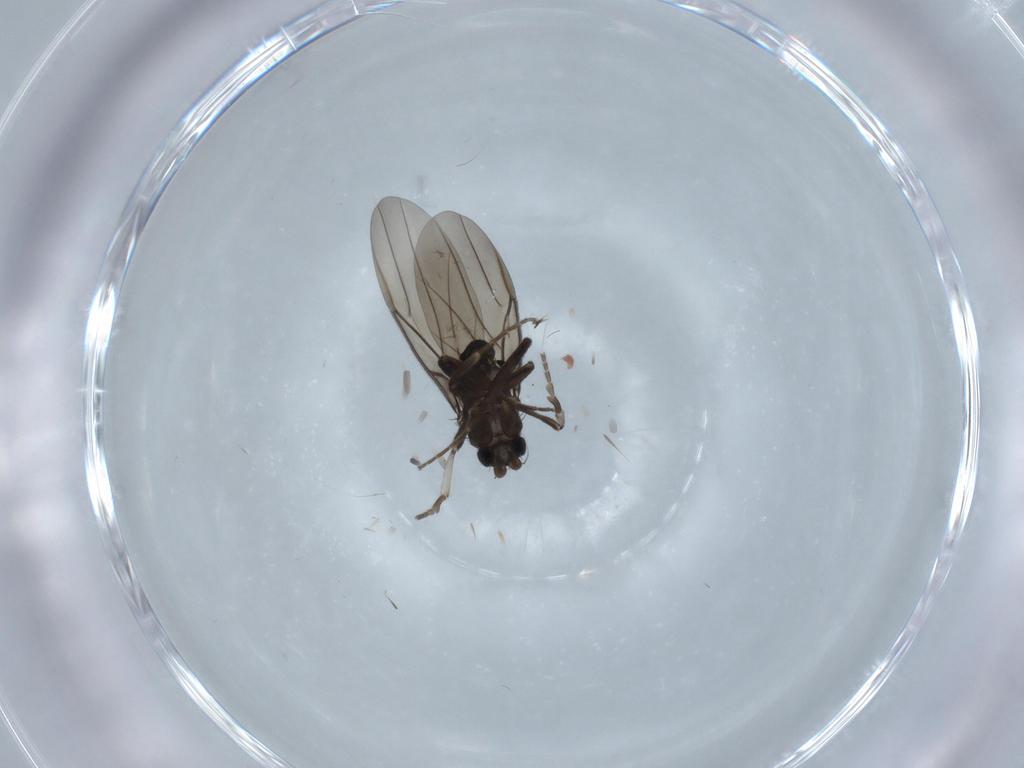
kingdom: Animalia
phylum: Arthropoda
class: Insecta
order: Diptera
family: Phoridae
